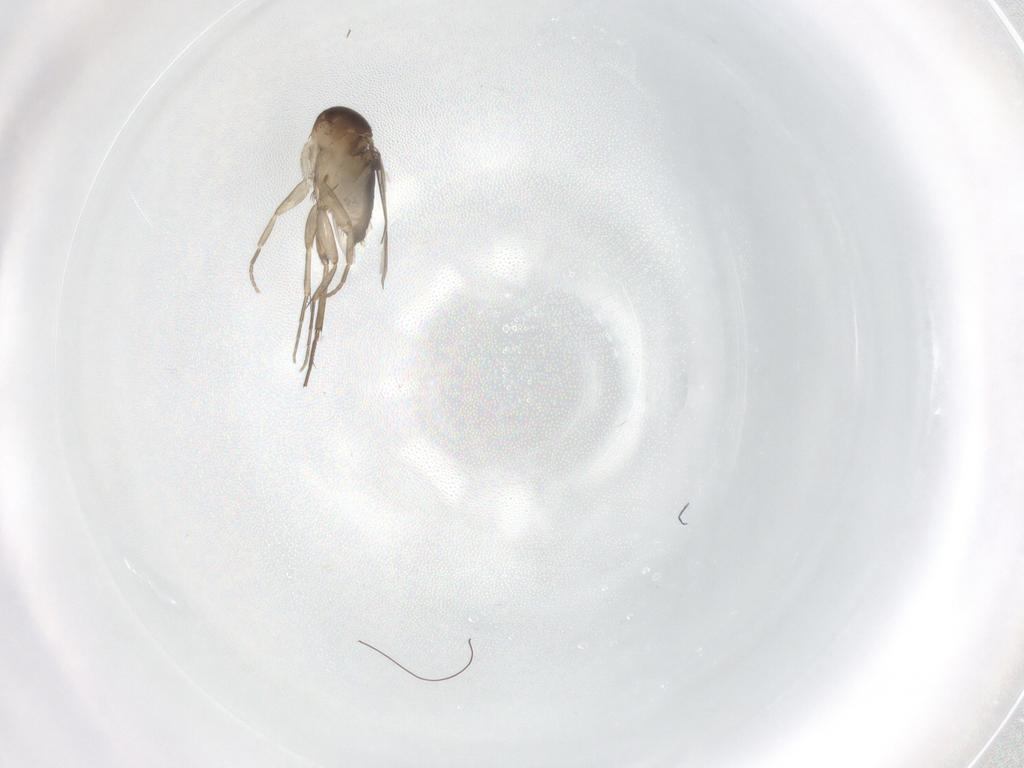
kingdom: Animalia
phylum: Arthropoda
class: Insecta
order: Diptera
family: Phoridae
